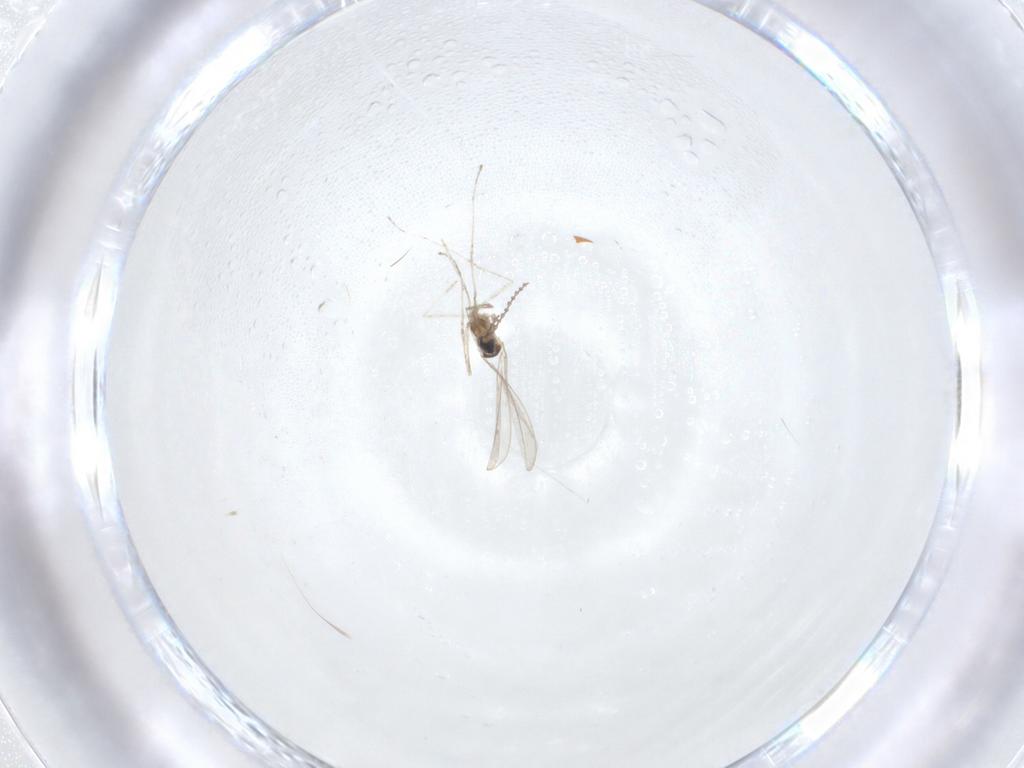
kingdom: Animalia
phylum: Arthropoda
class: Insecta
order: Diptera
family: Cecidomyiidae
